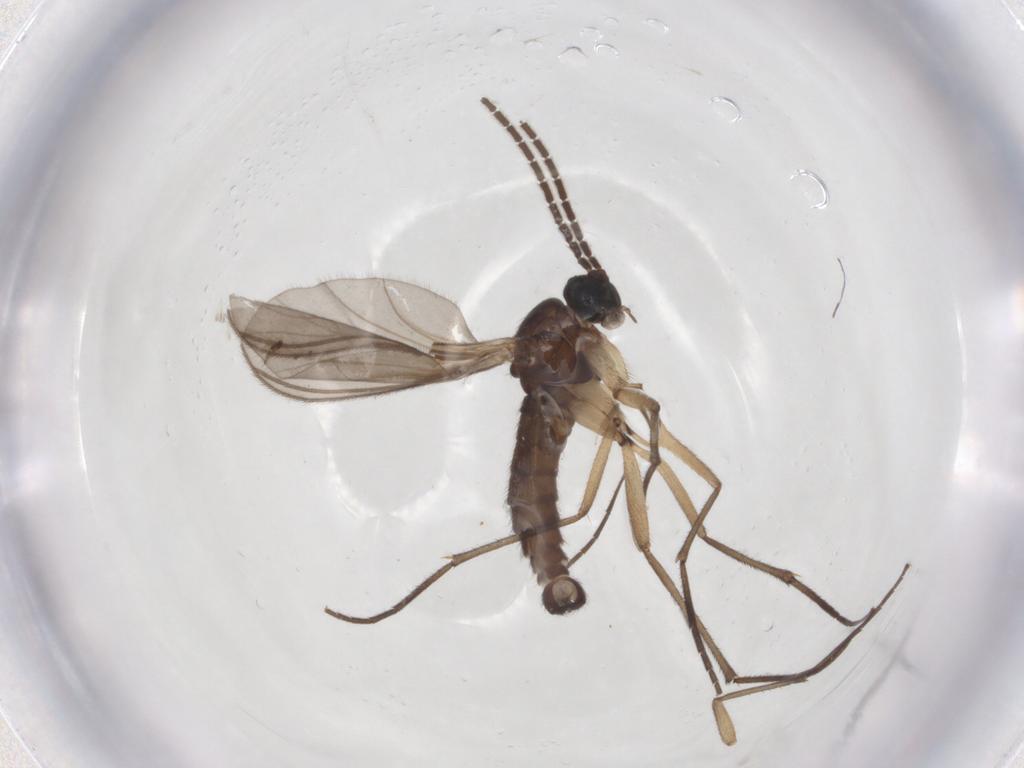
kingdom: Animalia
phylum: Arthropoda
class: Insecta
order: Diptera
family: Sciaridae
